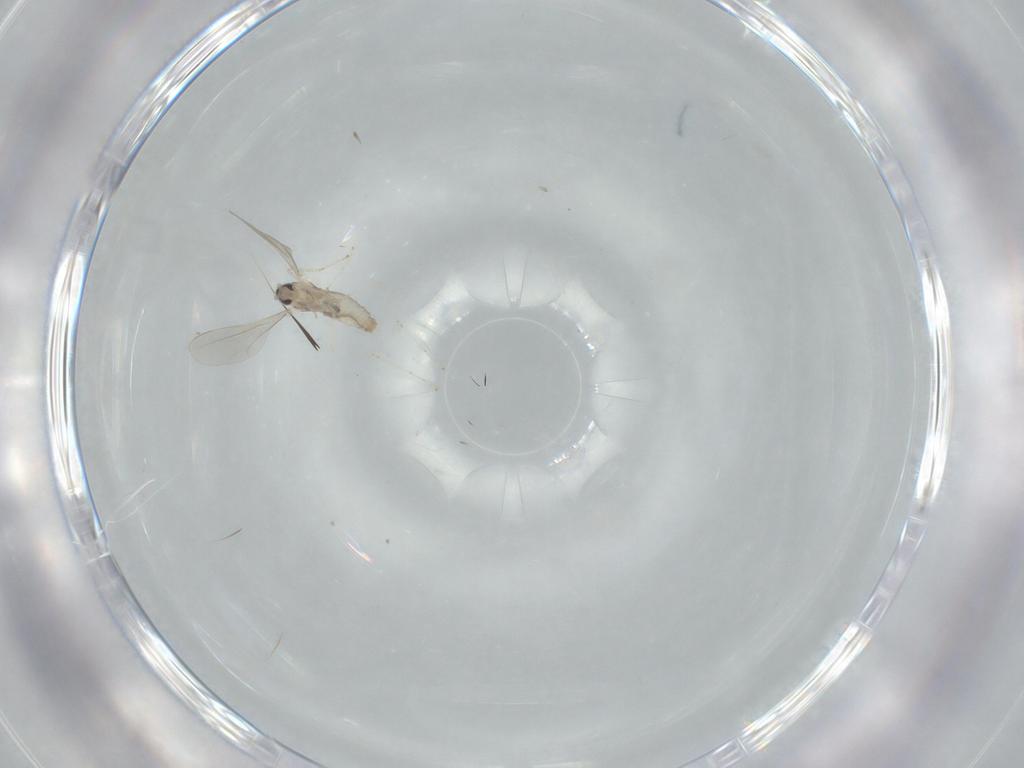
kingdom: Animalia
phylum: Arthropoda
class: Insecta
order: Diptera
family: Cecidomyiidae
